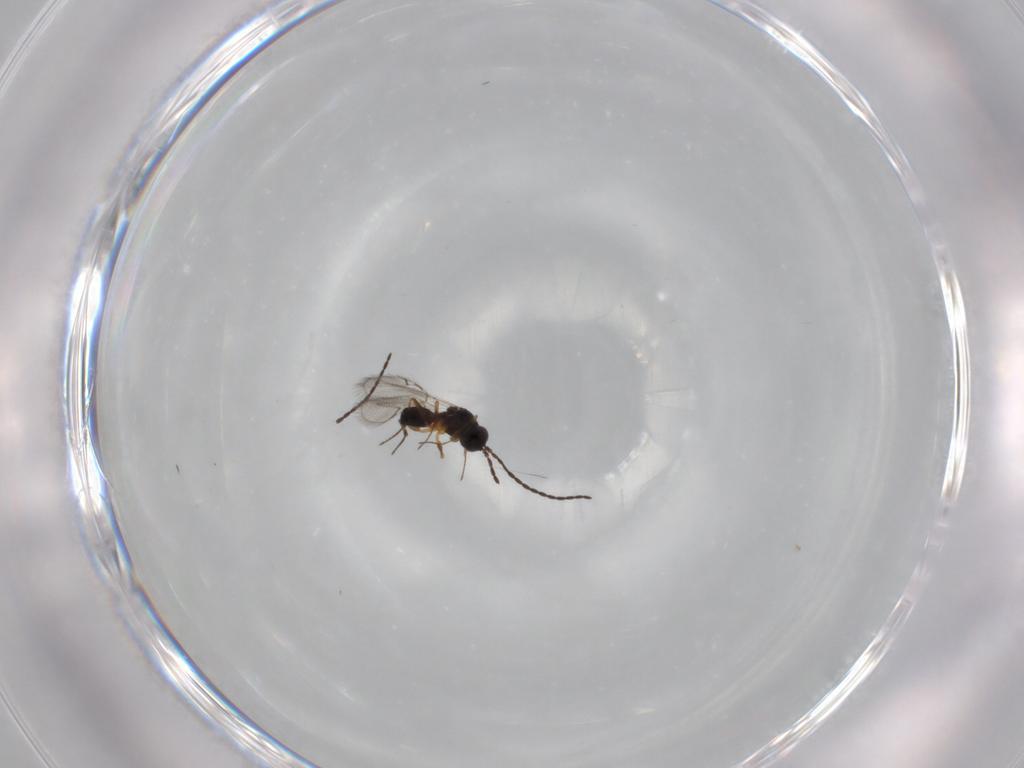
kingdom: Animalia
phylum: Arthropoda
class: Insecta
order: Hymenoptera
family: Figitidae
